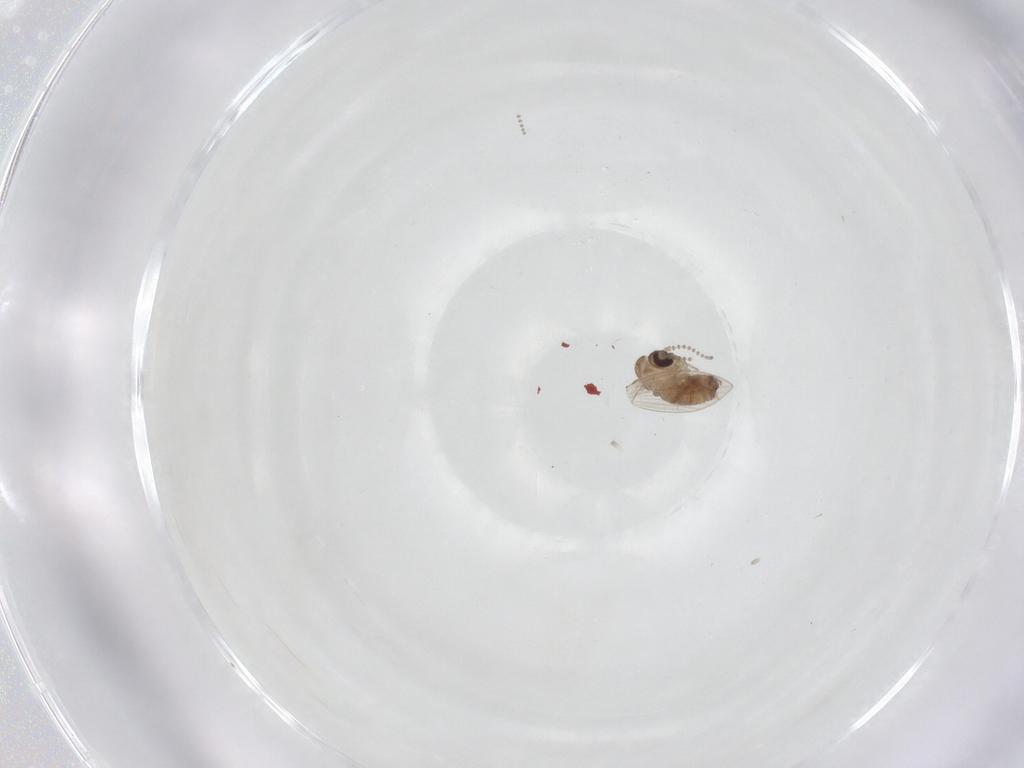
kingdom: Animalia
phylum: Arthropoda
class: Insecta
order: Diptera
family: Psychodidae
